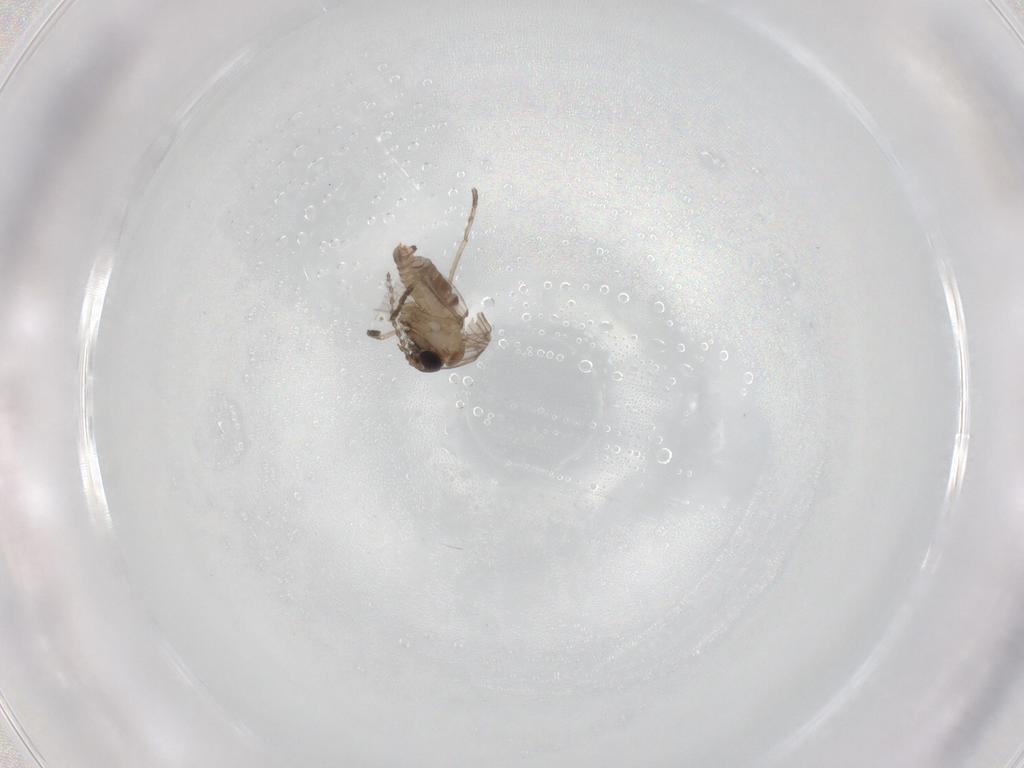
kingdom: Animalia
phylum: Arthropoda
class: Insecta
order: Diptera
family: Psychodidae
